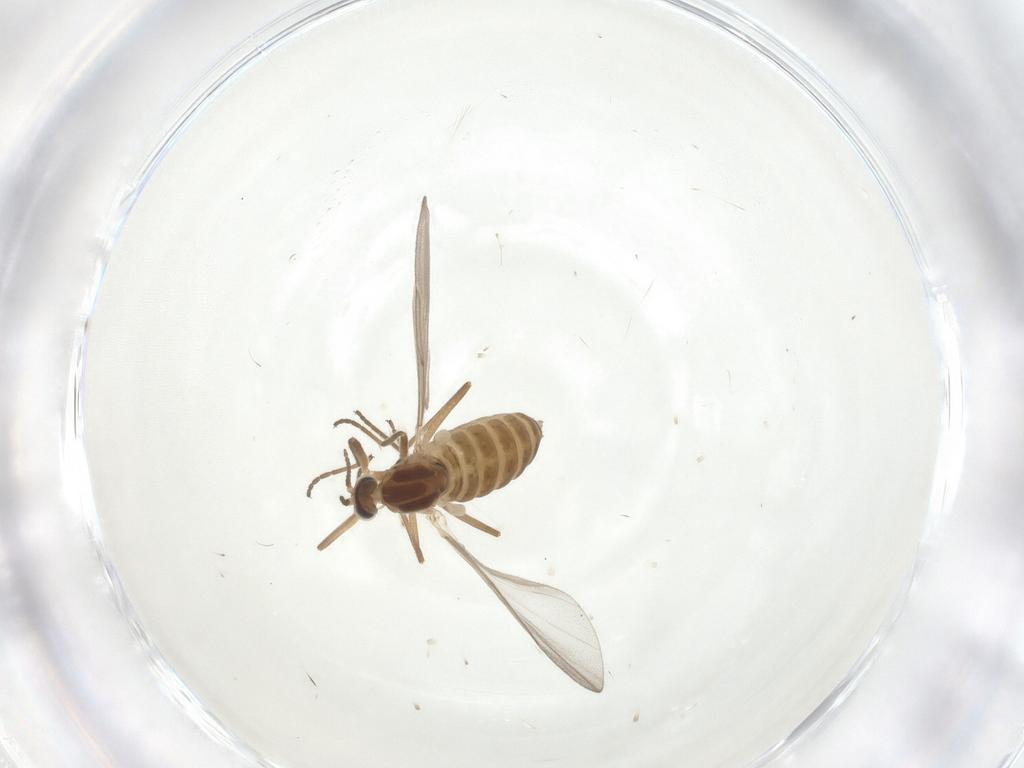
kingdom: Animalia
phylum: Arthropoda
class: Insecta
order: Diptera
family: Cecidomyiidae
